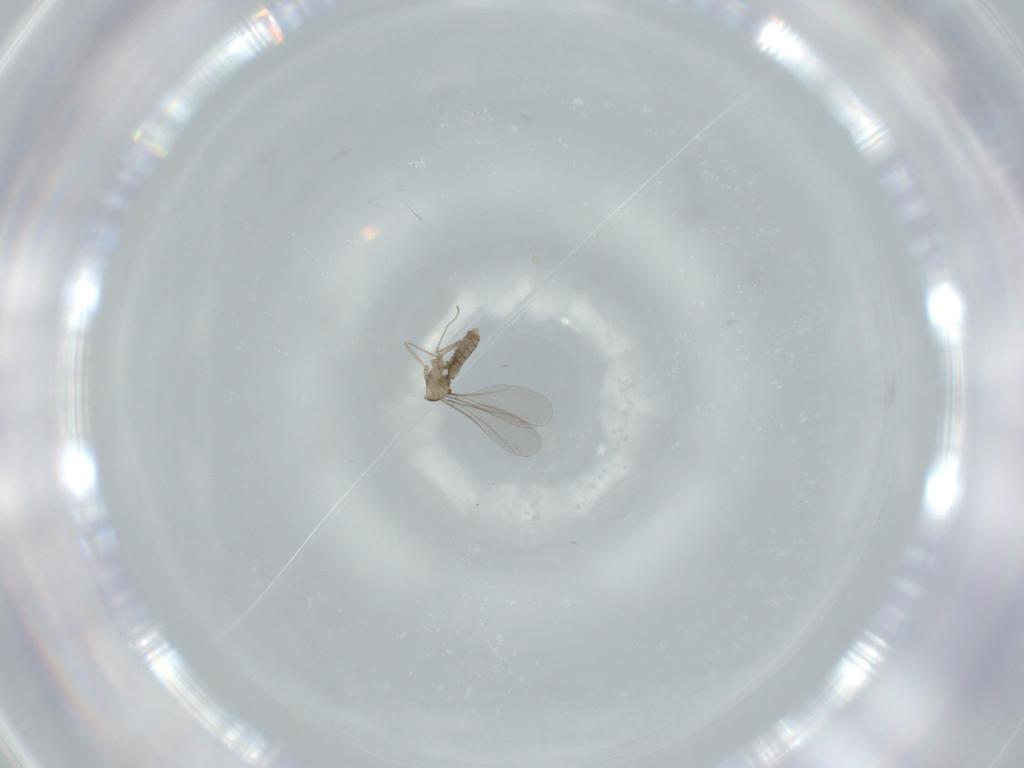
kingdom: Animalia
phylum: Arthropoda
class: Insecta
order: Diptera
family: Cecidomyiidae
